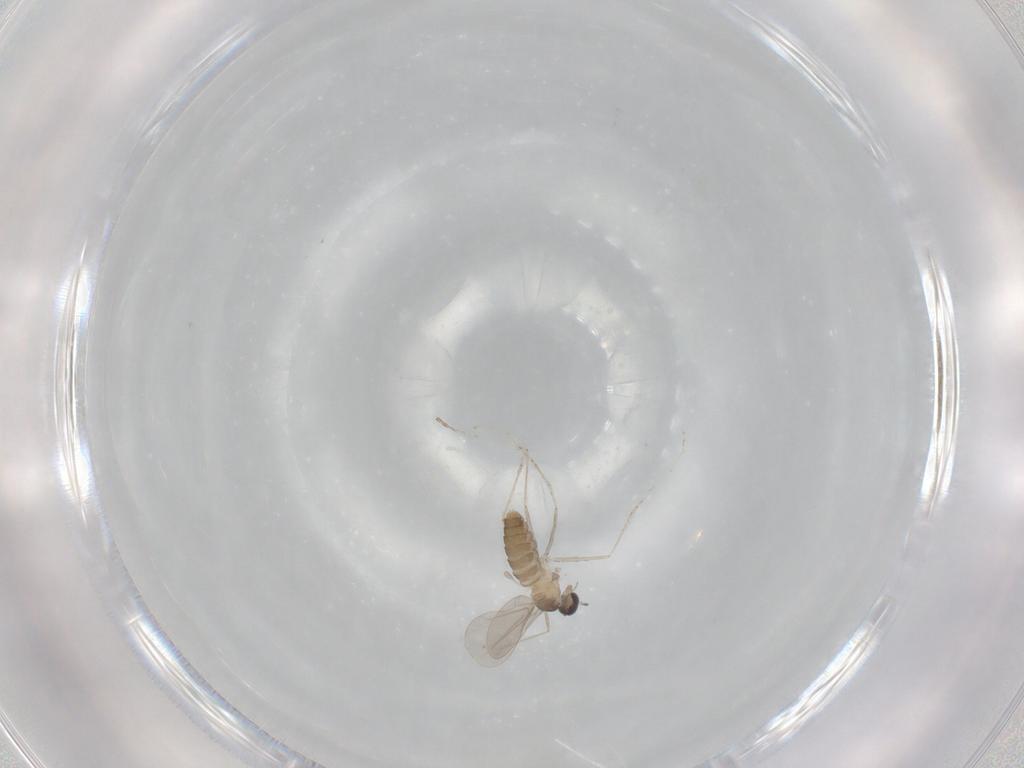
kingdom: Animalia
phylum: Arthropoda
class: Insecta
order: Diptera
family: Cecidomyiidae
